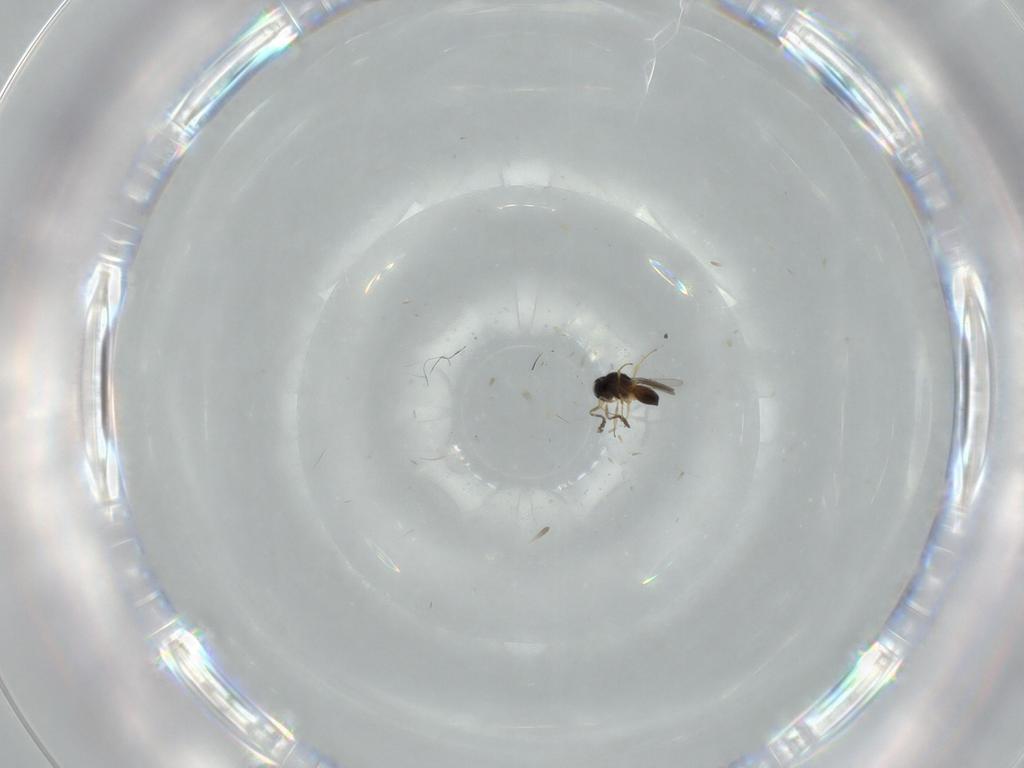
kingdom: Animalia
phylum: Arthropoda
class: Insecta
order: Hymenoptera
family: Scelionidae
